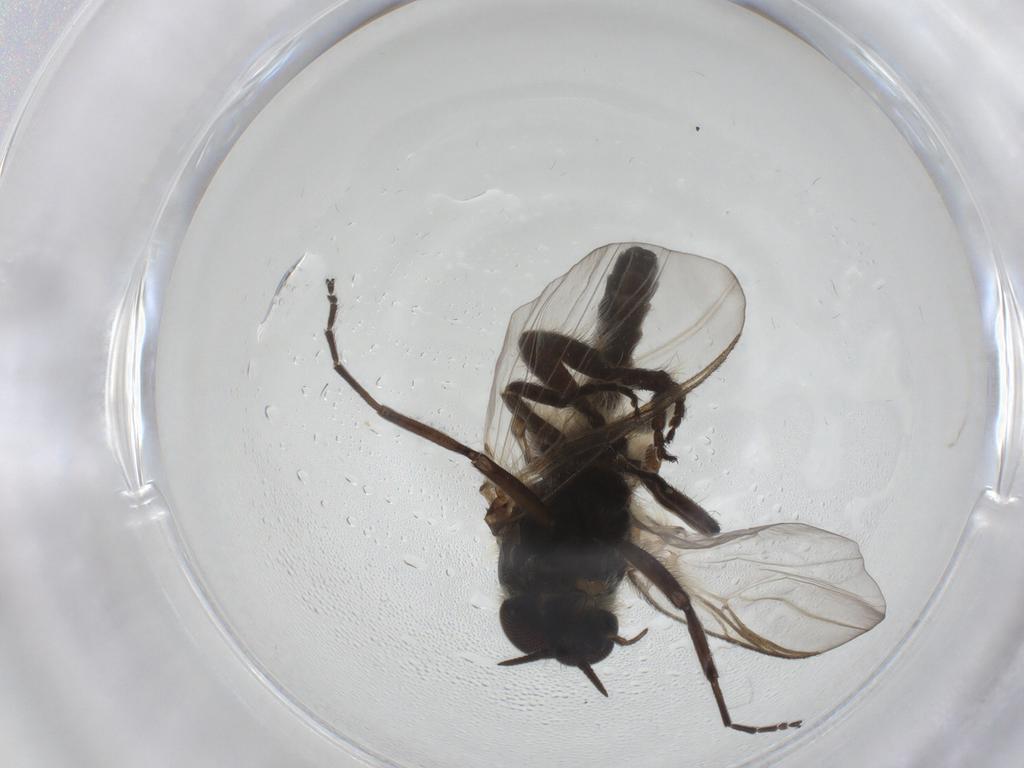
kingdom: Animalia
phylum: Arthropoda
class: Insecta
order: Diptera
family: Simuliidae
